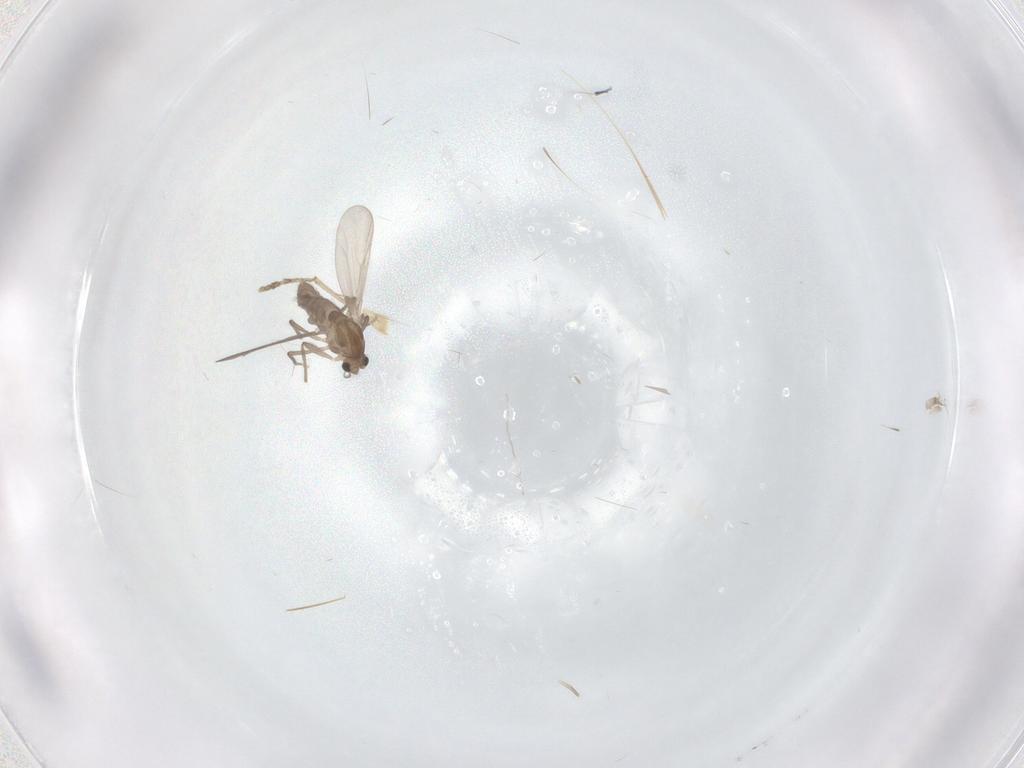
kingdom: Animalia
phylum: Arthropoda
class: Insecta
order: Diptera
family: Chironomidae
